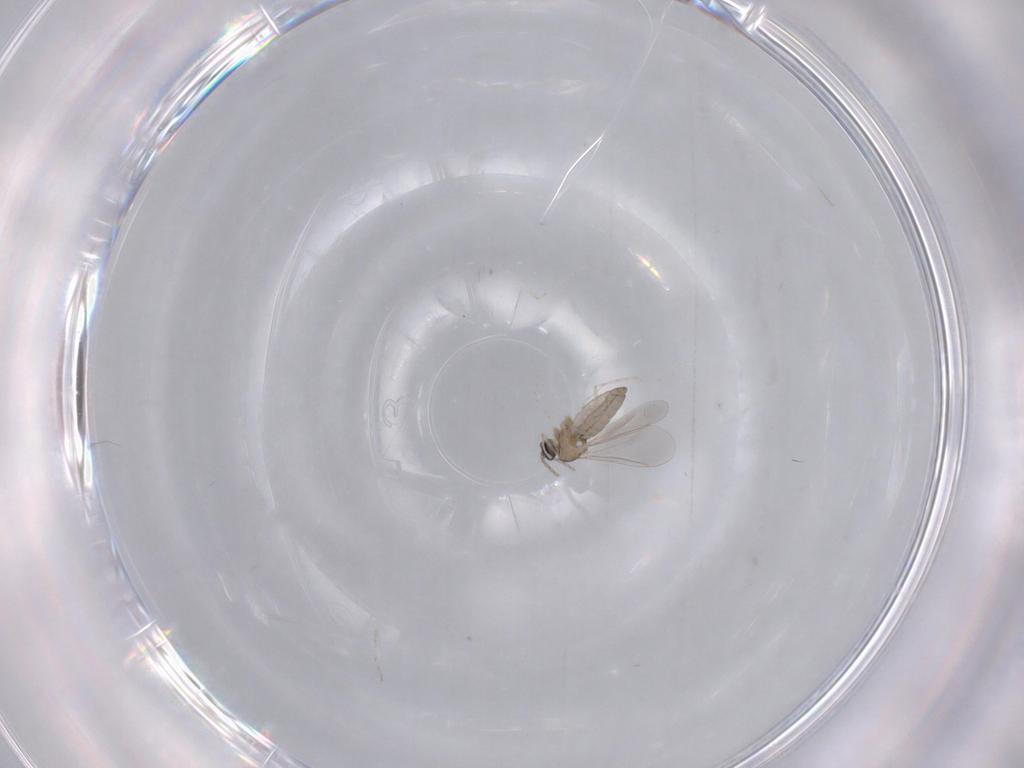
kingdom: Animalia
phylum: Arthropoda
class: Insecta
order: Diptera
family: Cecidomyiidae
